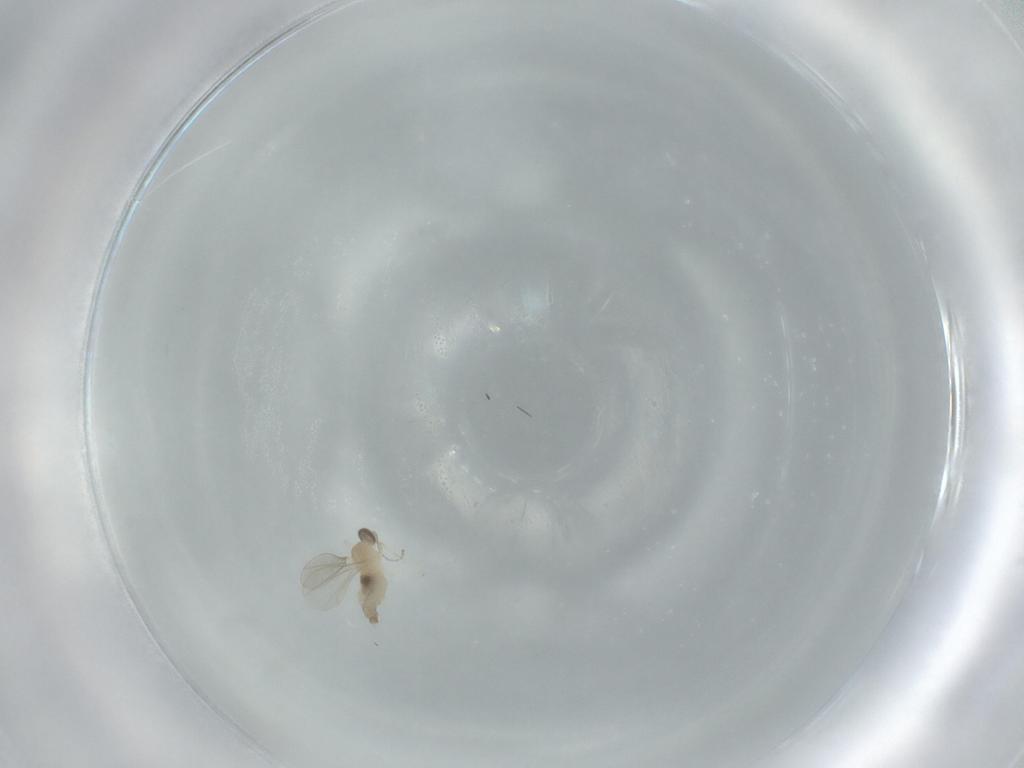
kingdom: Animalia
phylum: Arthropoda
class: Insecta
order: Diptera
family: Cecidomyiidae
